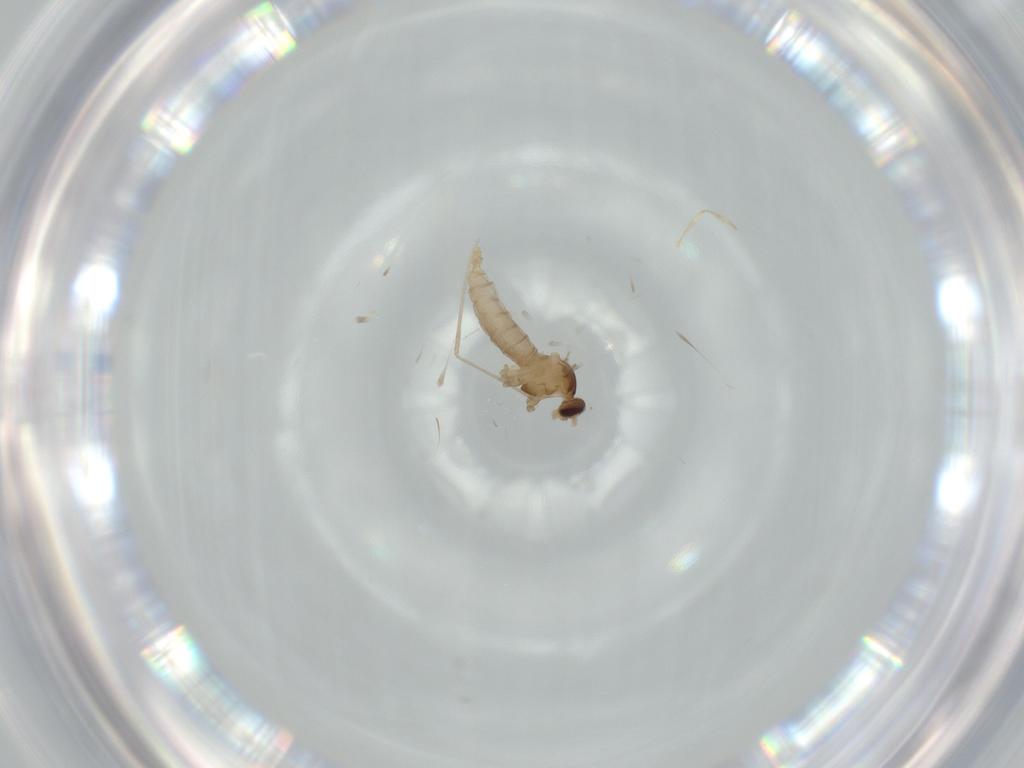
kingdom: Animalia
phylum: Arthropoda
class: Insecta
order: Diptera
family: Cecidomyiidae
